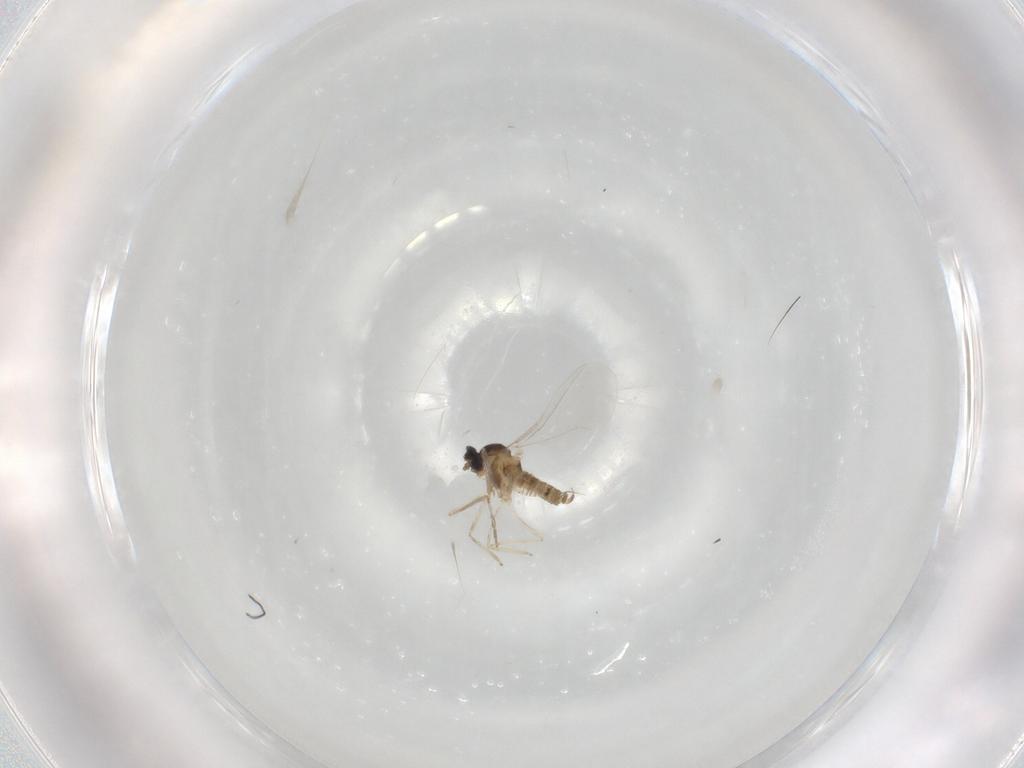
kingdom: Animalia
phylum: Arthropoda
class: Insecta
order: Diptera
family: Cecidomyiidae
